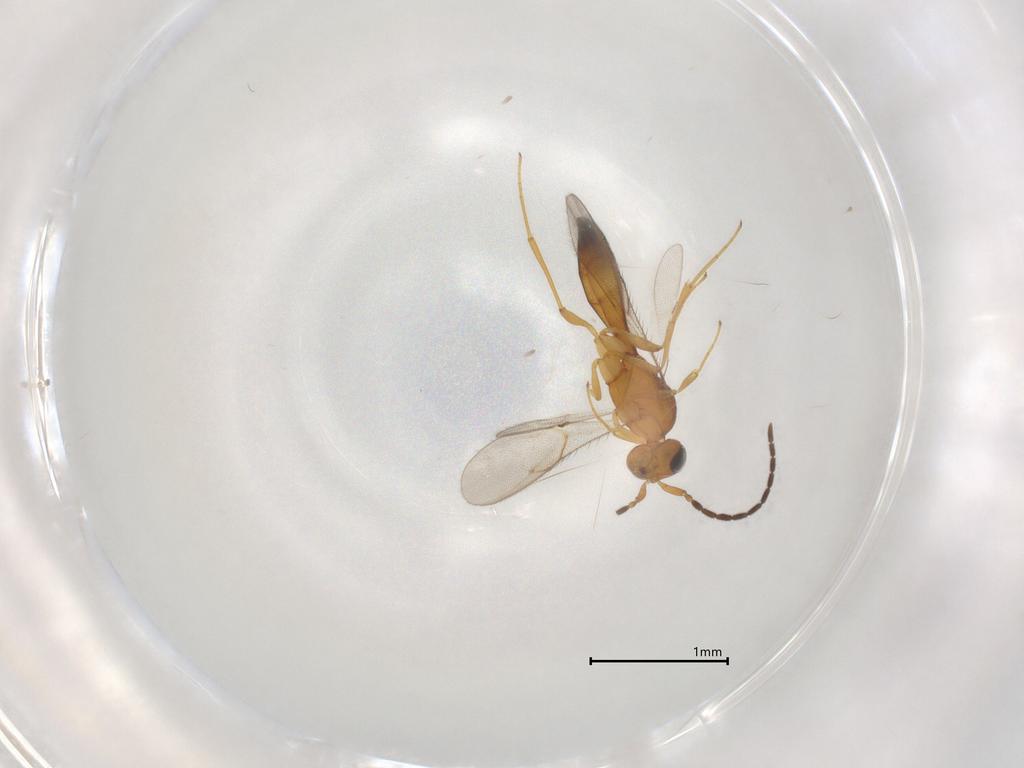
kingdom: Animalia
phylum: Arthropoda
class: Insecta
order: Hymenoptera
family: Scelionidae
